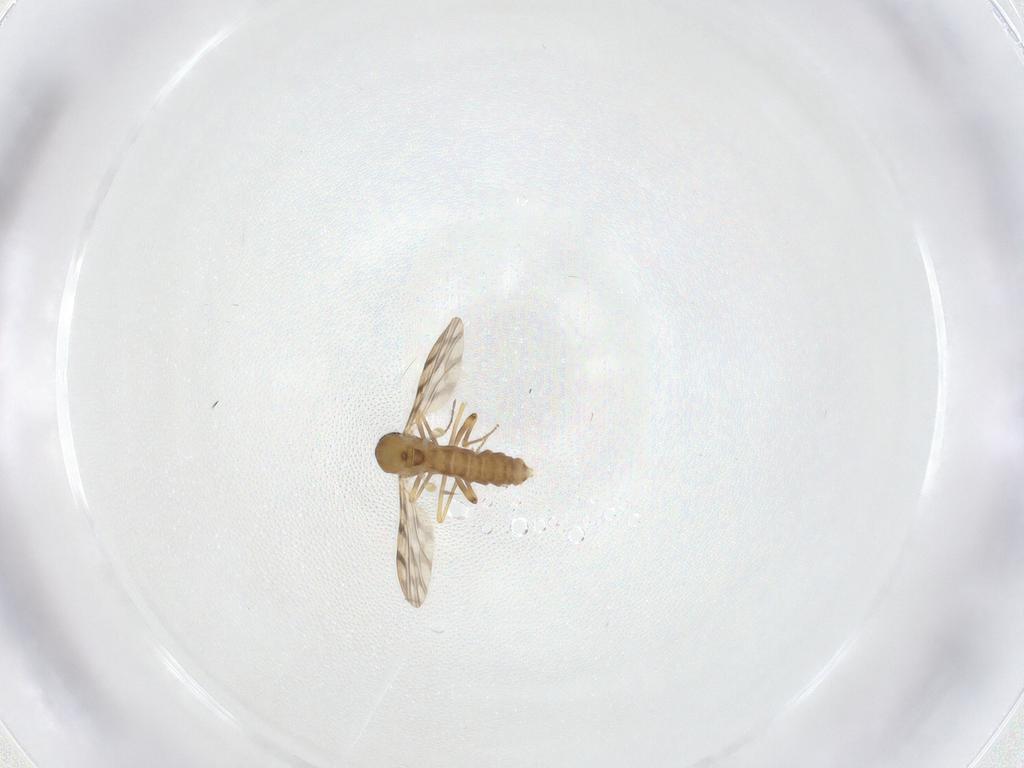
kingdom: Animalia
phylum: Arthropoda
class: Insecta
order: Diptera
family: Ceratopogonidae
